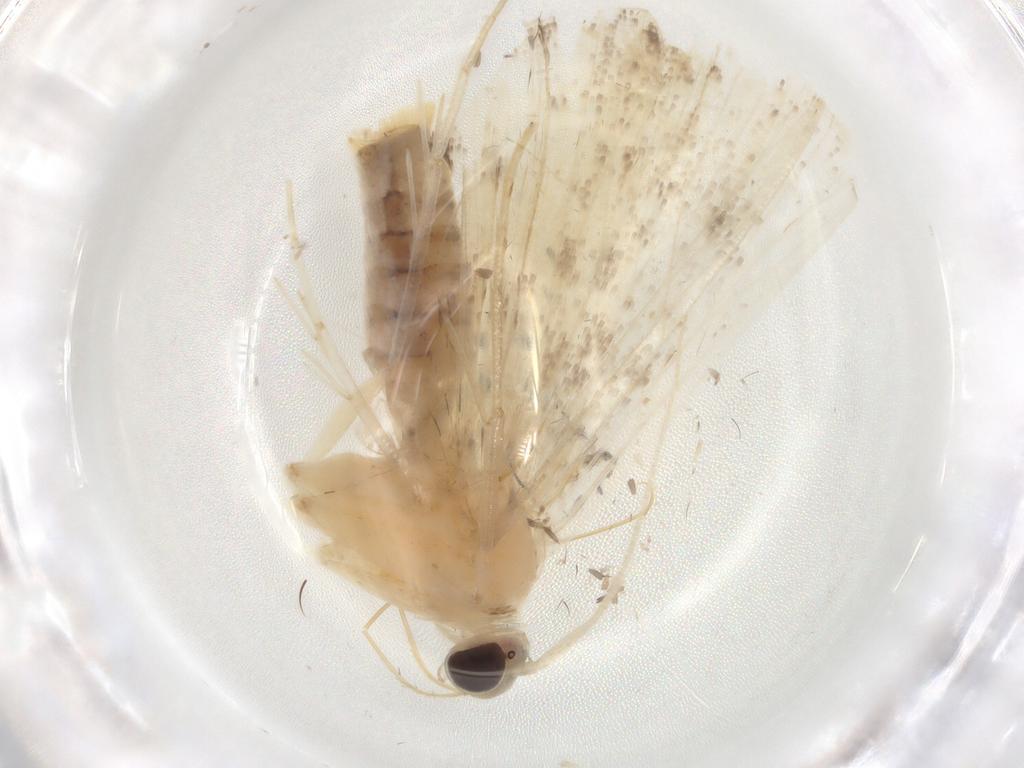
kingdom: Animalia
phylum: Arthropoda
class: Insecta
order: Lepidoptera
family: Crambidae
